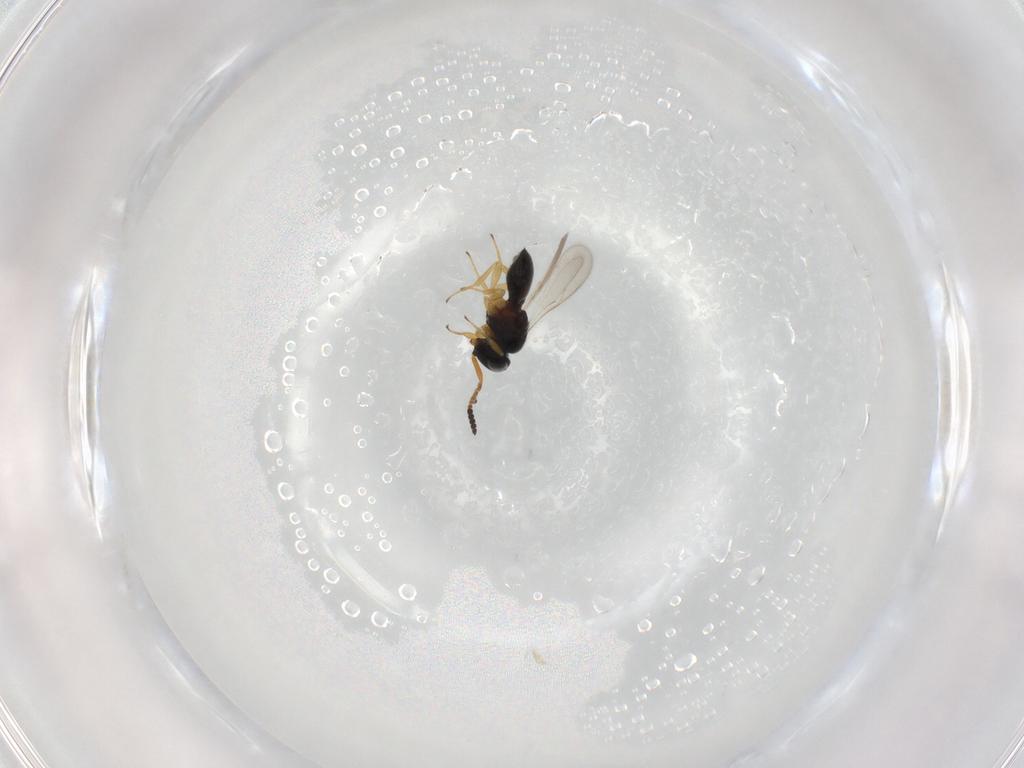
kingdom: Animalia
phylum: Arthropoda
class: Insecta
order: Hymenoptera
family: Scelionidae
